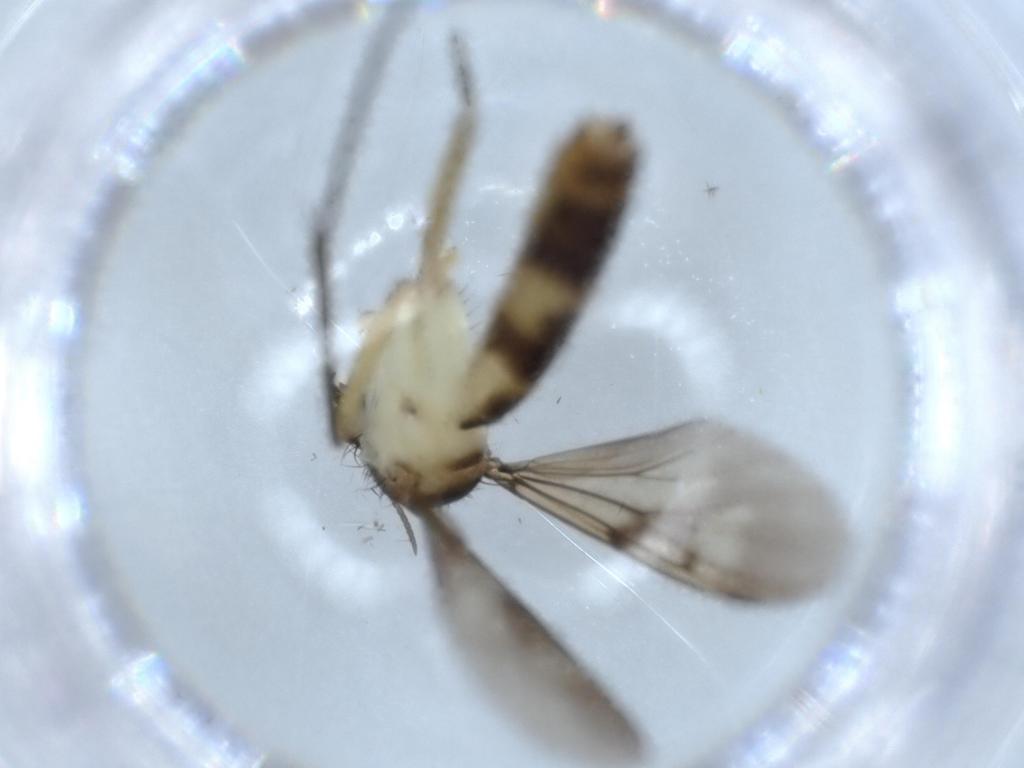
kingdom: Animalia
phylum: Arthropoda
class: Insecta
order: Diptera
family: Mycetophilidae
